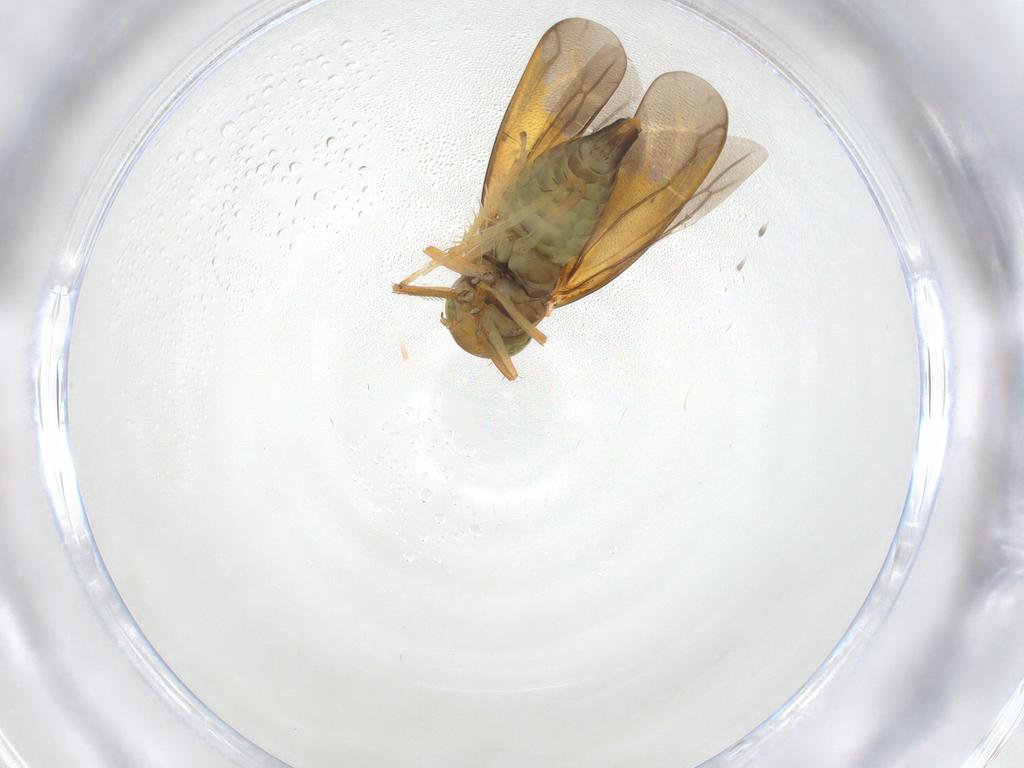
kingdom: Animalia
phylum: Arthropoda
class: Insecta
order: Hemiptera
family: Cicadellidae
